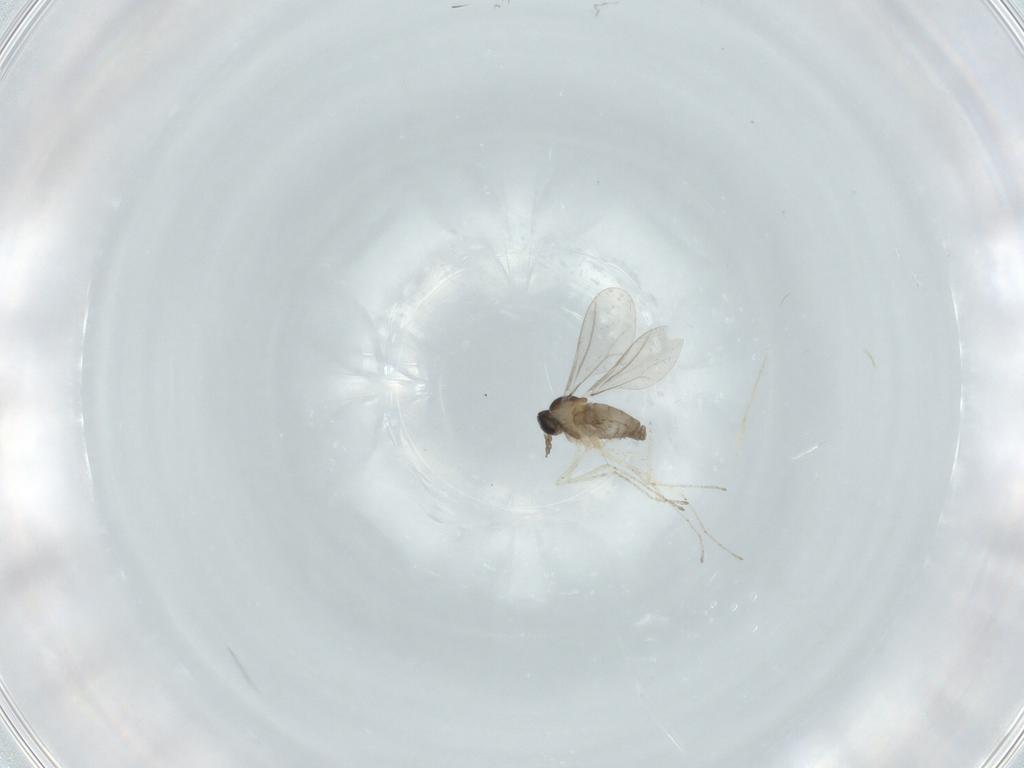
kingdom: Animalia
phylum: Arthropoda
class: Insecta
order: Diptera
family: Cecidomyiidae
